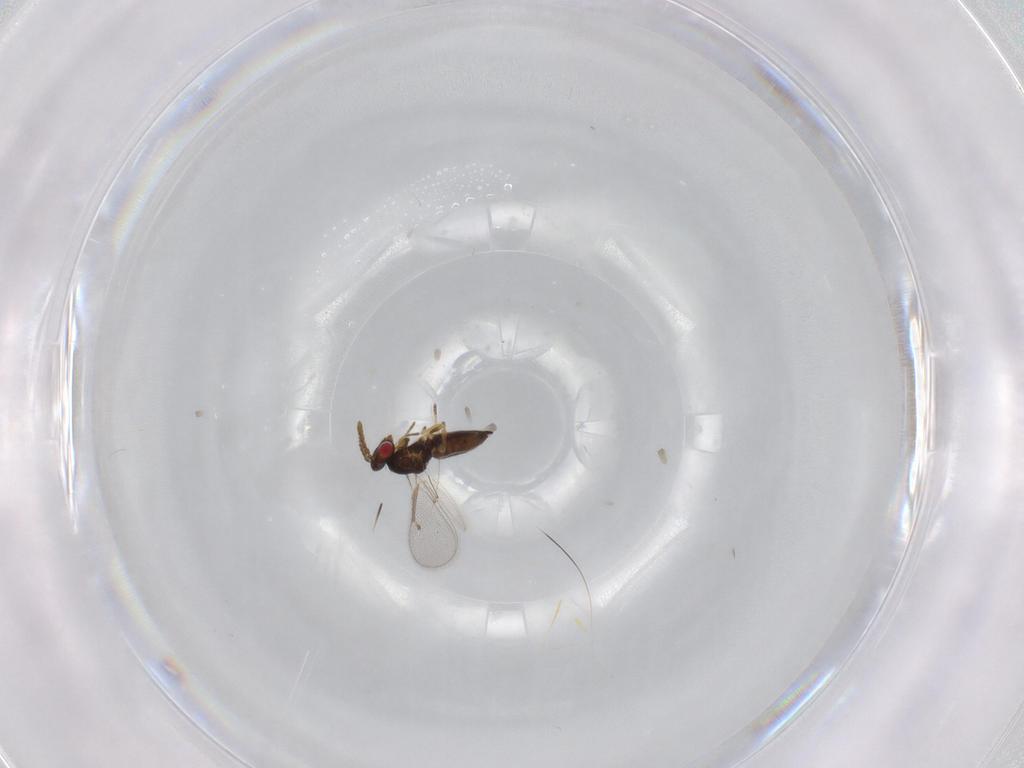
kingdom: Animalia
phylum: Arthropoda
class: Insecta
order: Hymenoptera
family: Eulophidae
